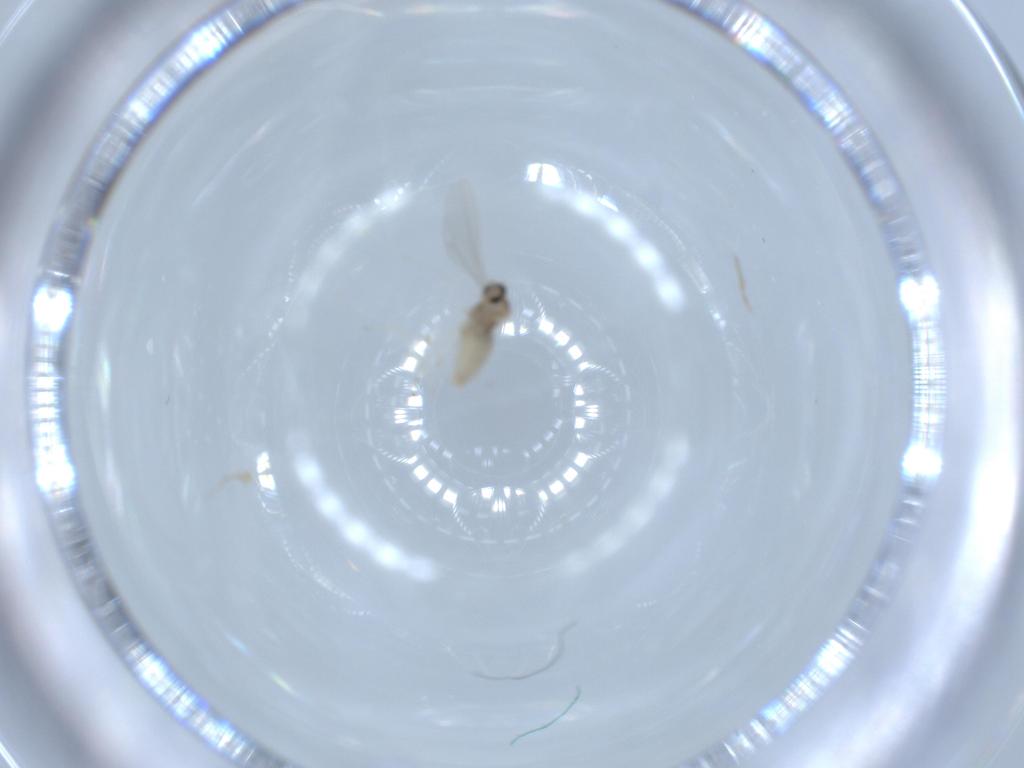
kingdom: Animalia
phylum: Arthropoda
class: Insecta
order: Diptera
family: Cecidomyiidae
